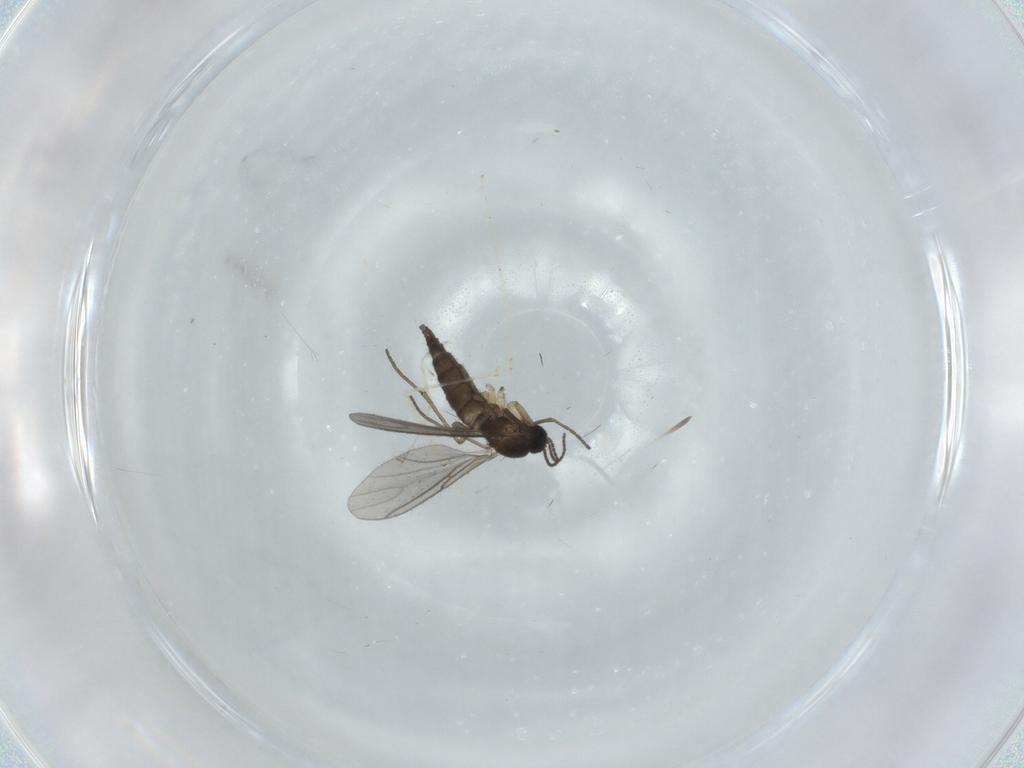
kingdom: Animalia
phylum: Arthropoda
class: Insecta
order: Diptera
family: Sciaridae
